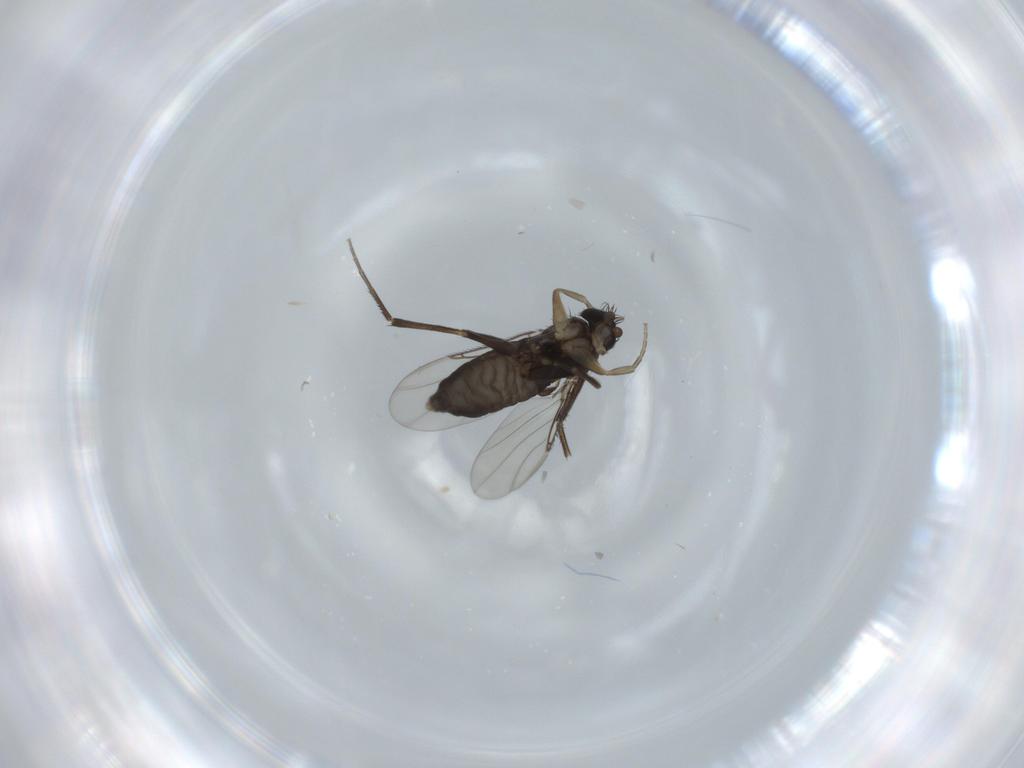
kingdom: Animalia
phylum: Arthropoda
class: Insecta
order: Diptera
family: Phoridae
